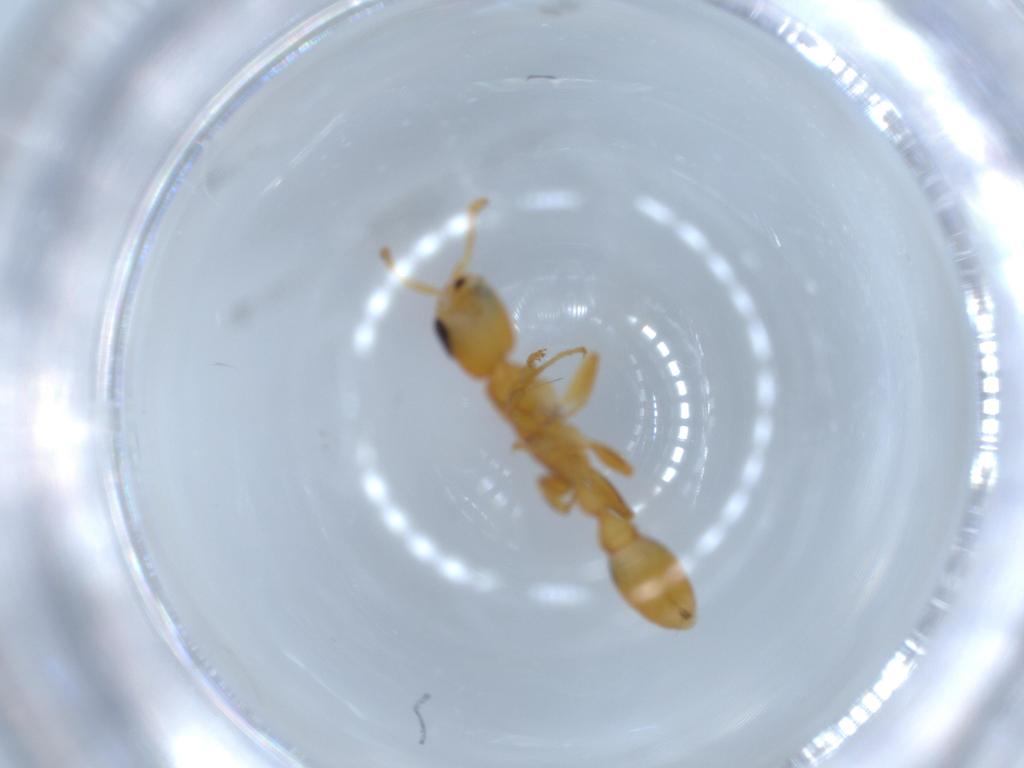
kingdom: Animalia
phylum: Arthropoda
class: Insecta
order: Hymenoptera
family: Formicidae
